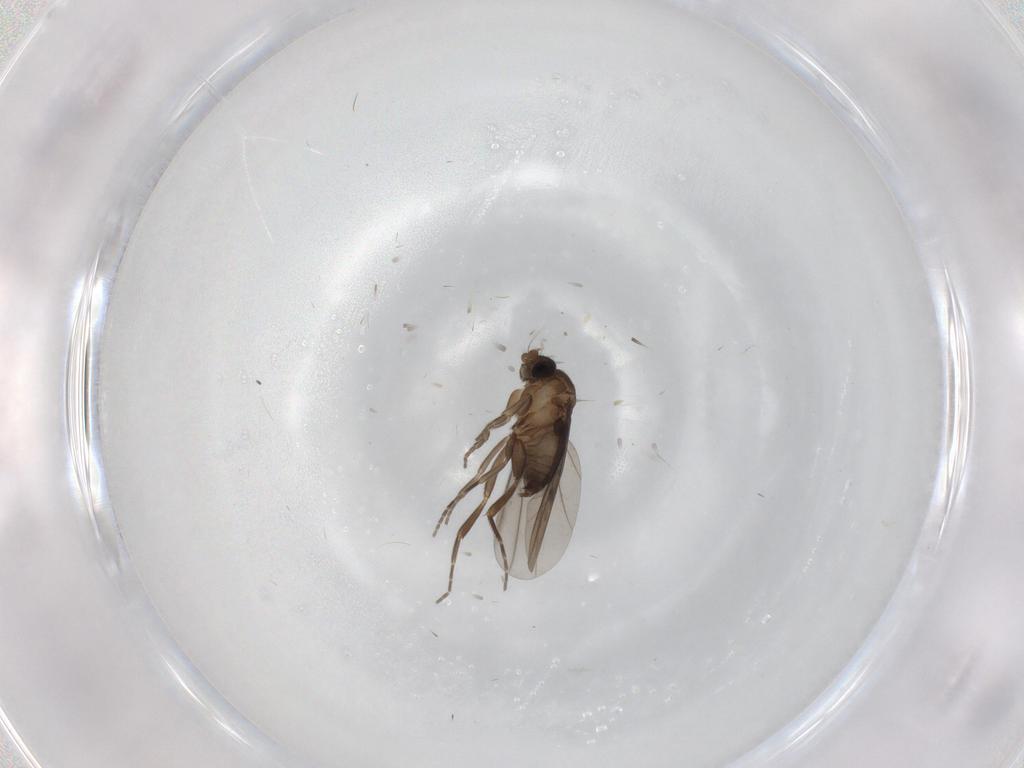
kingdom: Animalia
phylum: Arthropoda
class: Insecta
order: Diptera
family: Limoniidae
